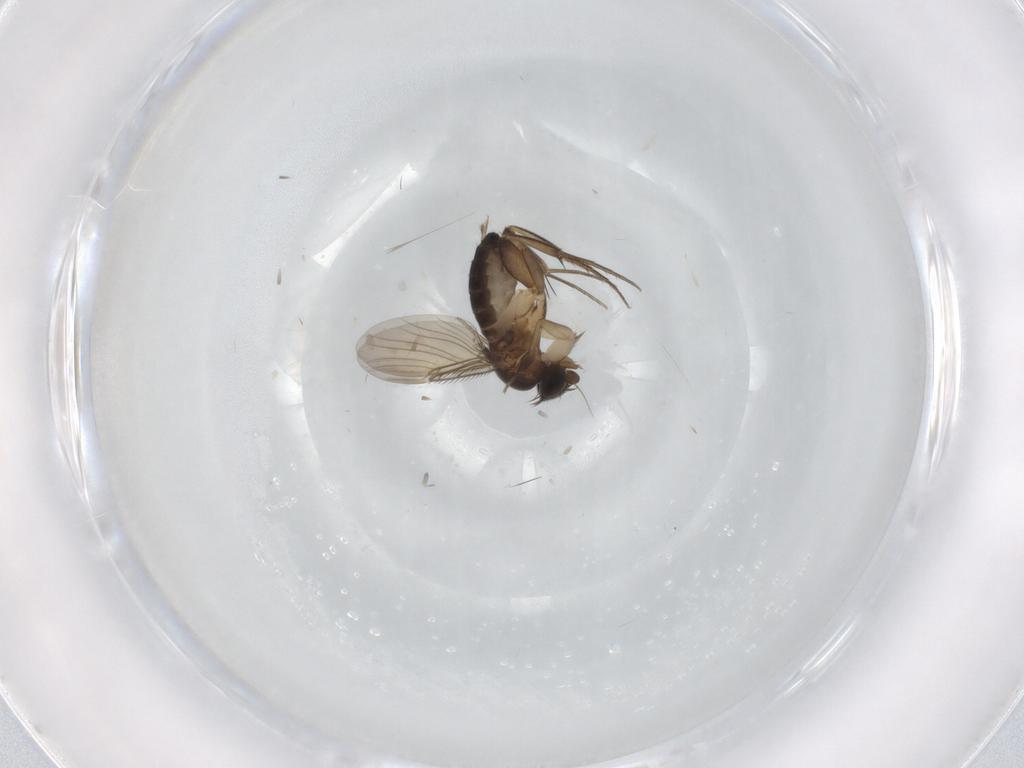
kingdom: Animalia
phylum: Arthropoda
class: Insecta
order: Diptera
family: Phoridae
